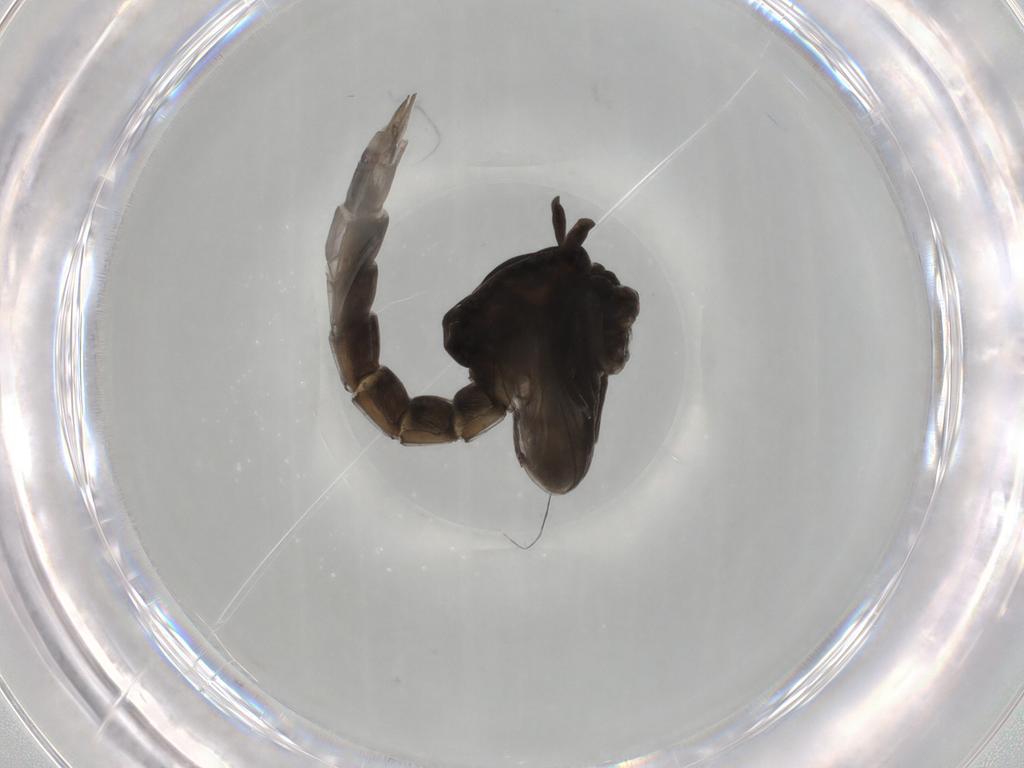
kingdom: Animalia
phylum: Arthropoda
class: Insecta
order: Diptera
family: Chironomidae
